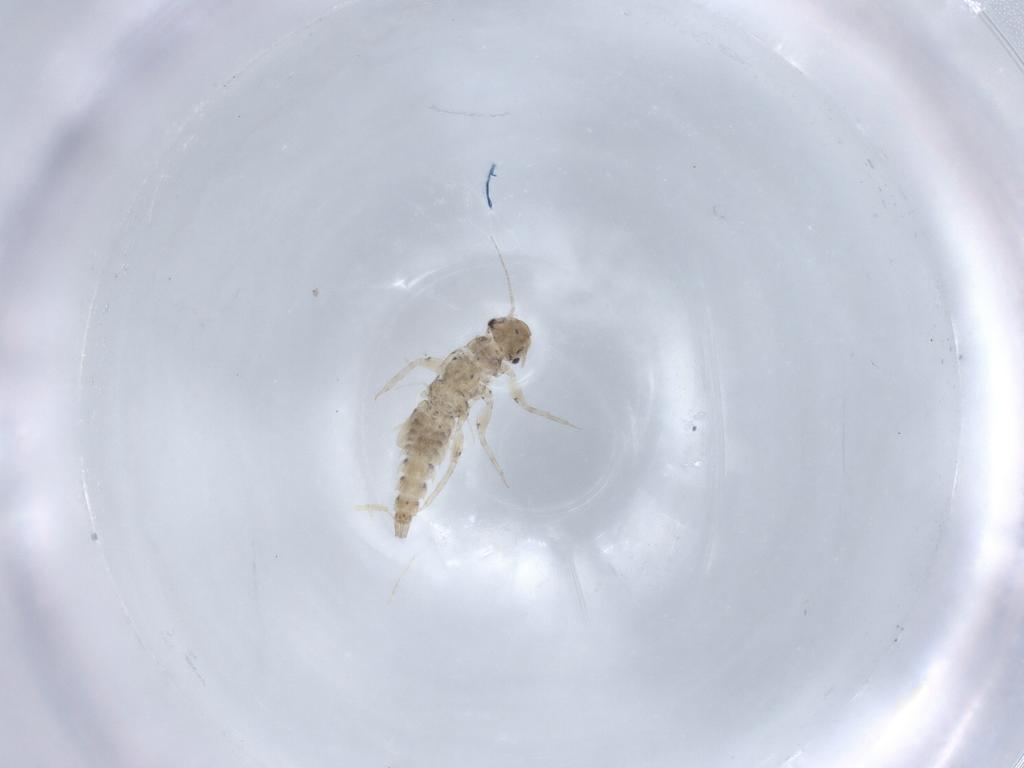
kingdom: Animalia
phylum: Arthropoda
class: Insecta
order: Ephemeroptera
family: Caenidae
